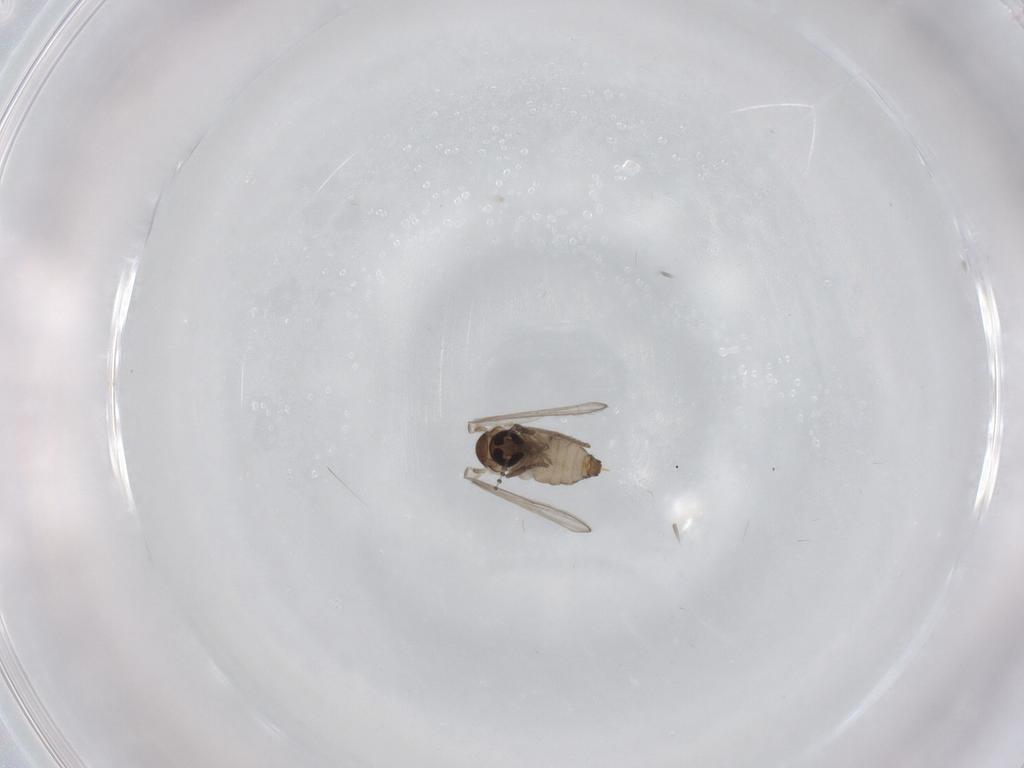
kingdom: Animalia
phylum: Arthropoda
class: Insecta
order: Diptera
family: Psychodidae
